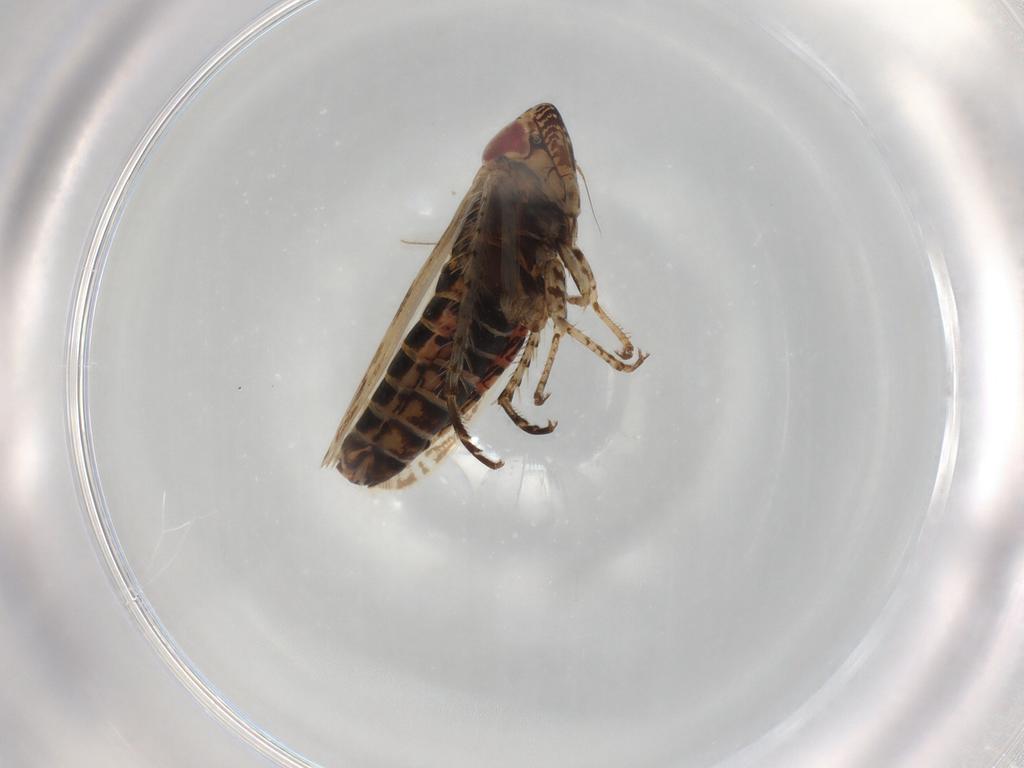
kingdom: Animalia
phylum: Arthropoda
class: Insecta
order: Hemiptera
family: Cicadellidae
